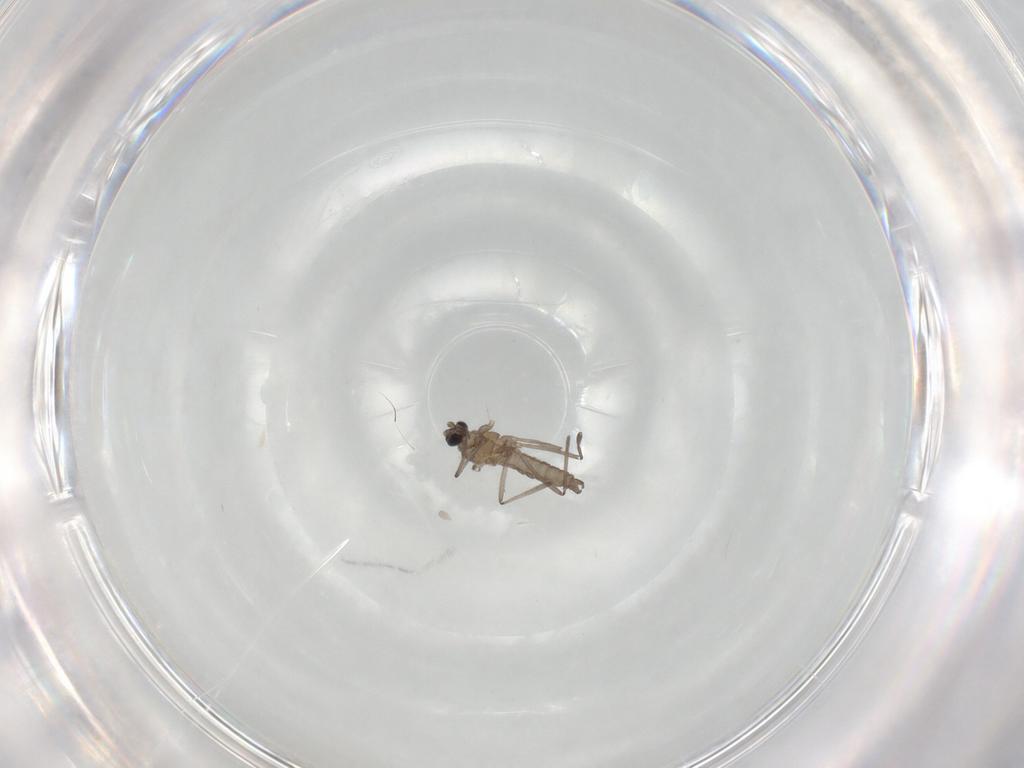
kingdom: Animalia
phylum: Arthropoda
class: Insecta
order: Diptera
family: Cecidomyiidae
